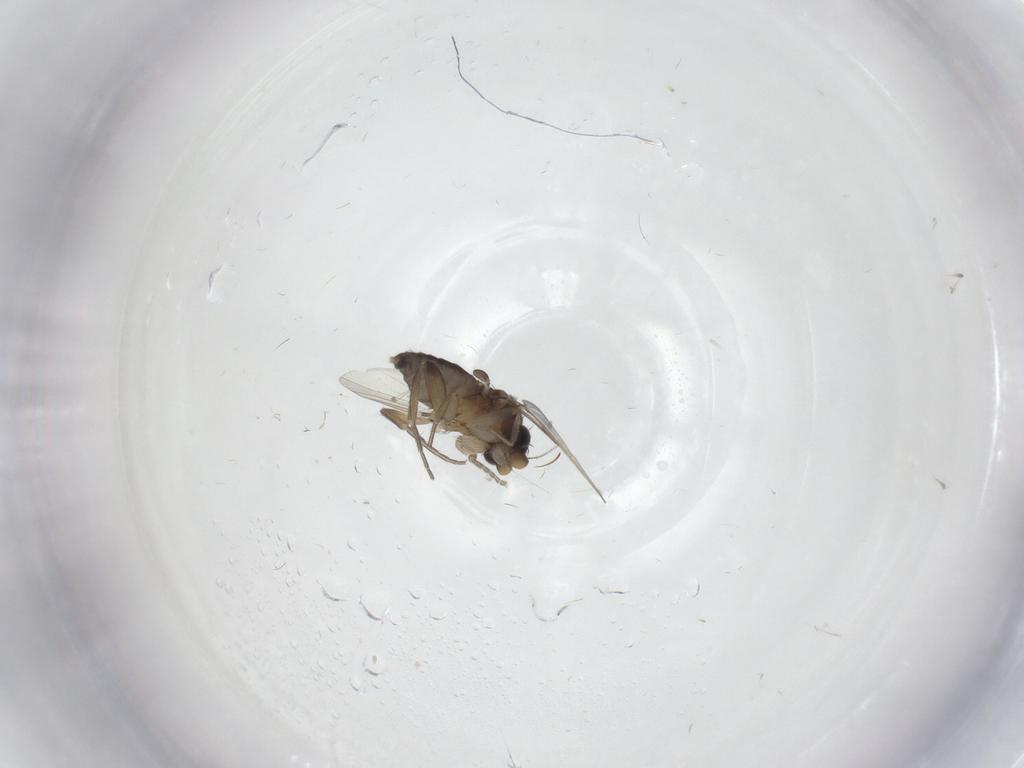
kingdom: Animalia
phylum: Arthropoda
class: Insecta
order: Diptera
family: Phoridae
